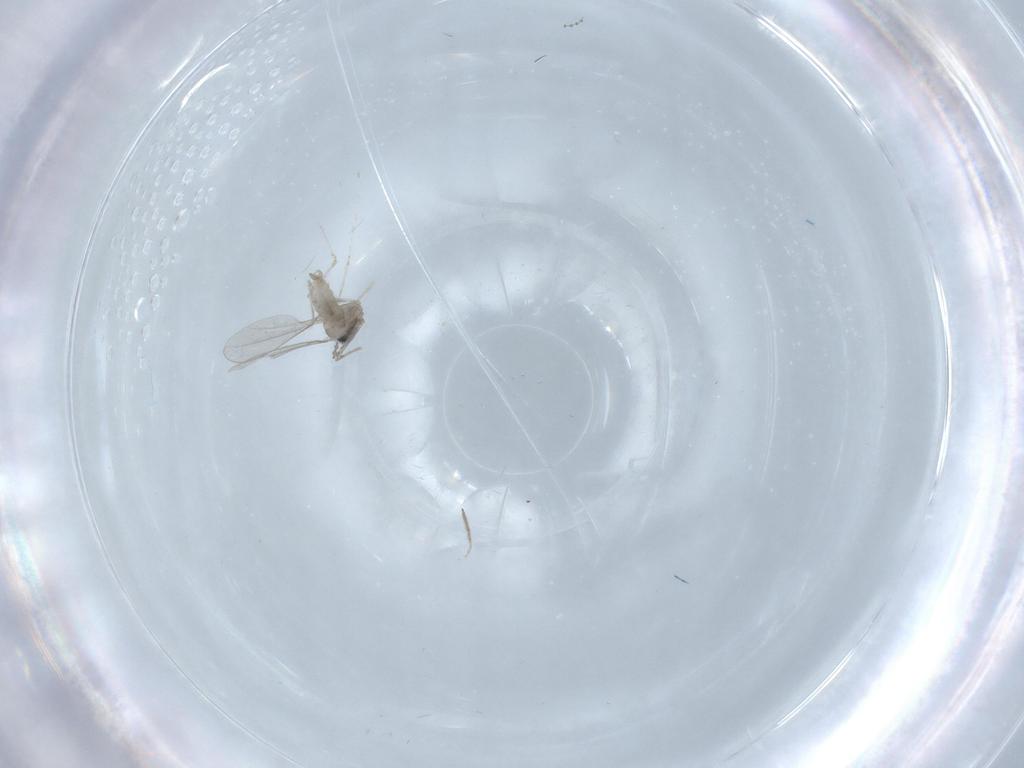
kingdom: Animalia
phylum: Arthropoda
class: Insecta
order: Diptera
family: Cecidomyiidae
